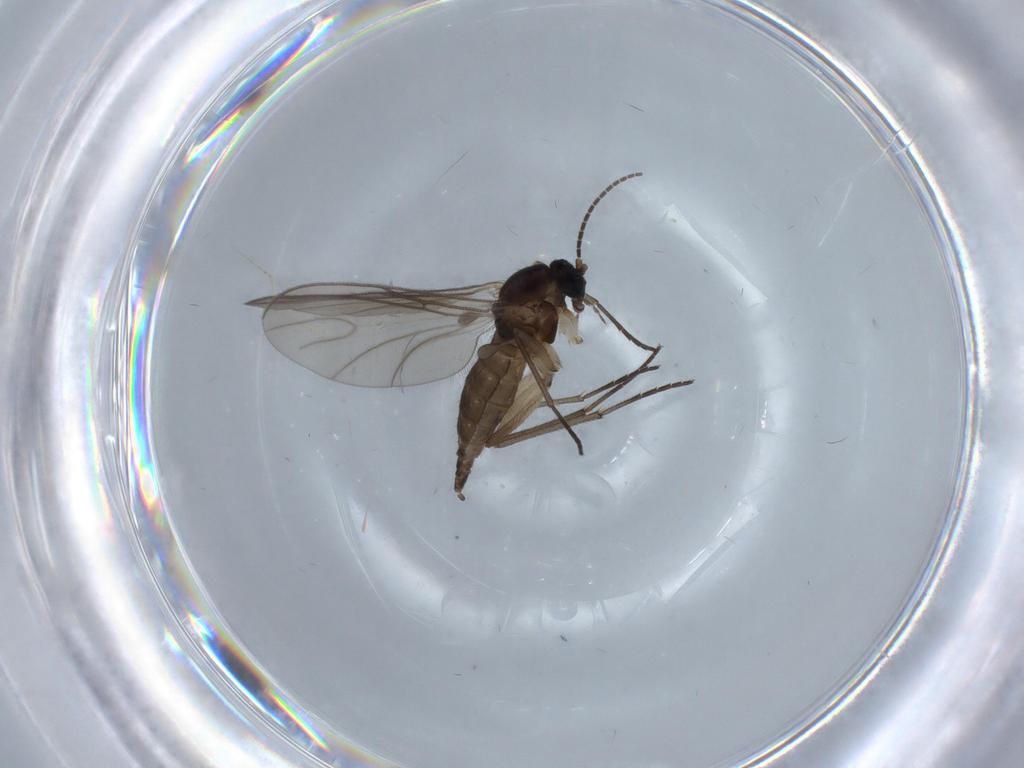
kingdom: Animalia
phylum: Arthropoda
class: Insecta
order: Diptera
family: Sciaridae
